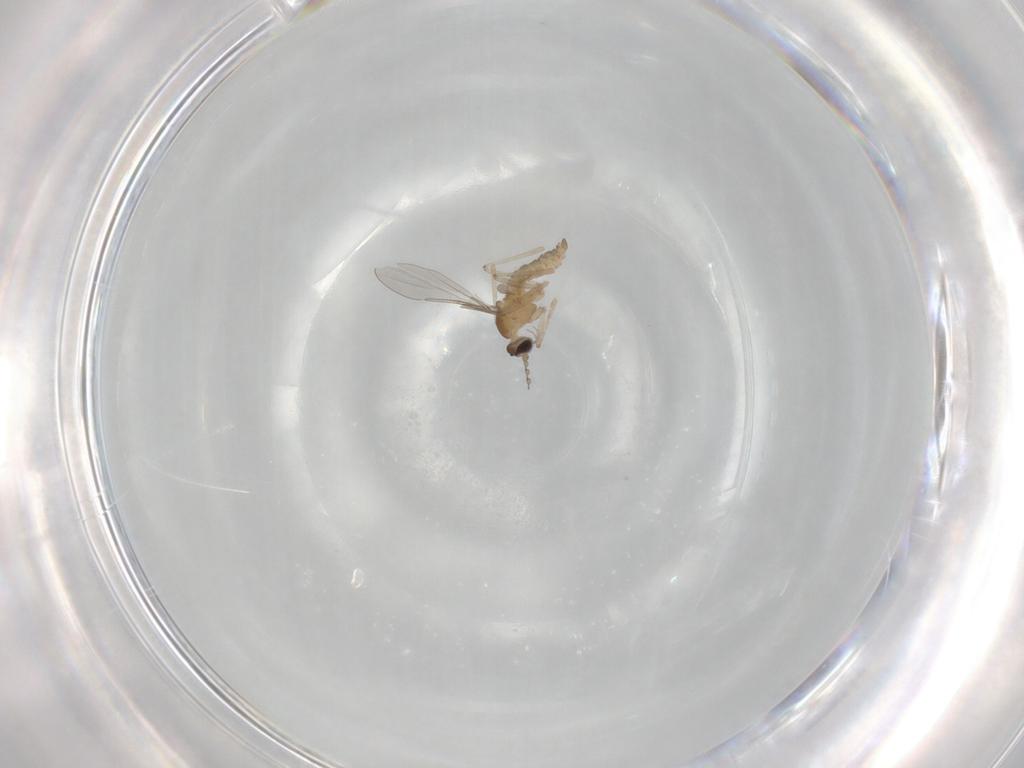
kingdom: Animalia
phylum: Arthropoda
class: Insecta
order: Diptera
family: Cecidomyiidae
